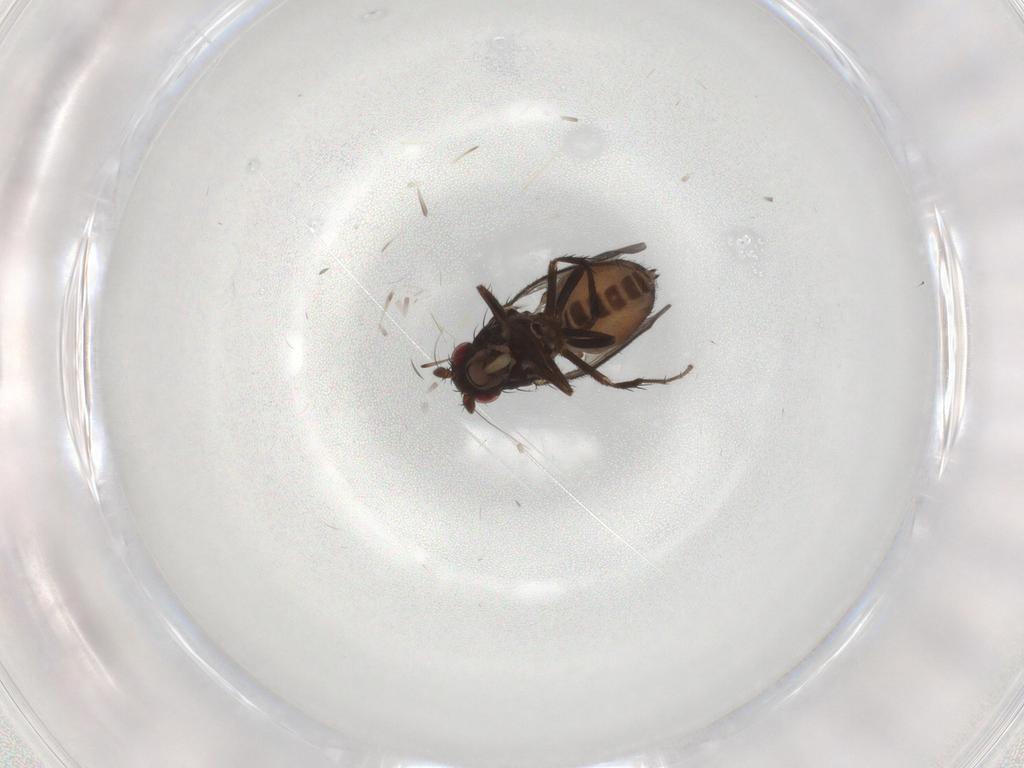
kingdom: Animalia
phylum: Arthropoda
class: Insecta
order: Diptera
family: Sphaeroceridae
